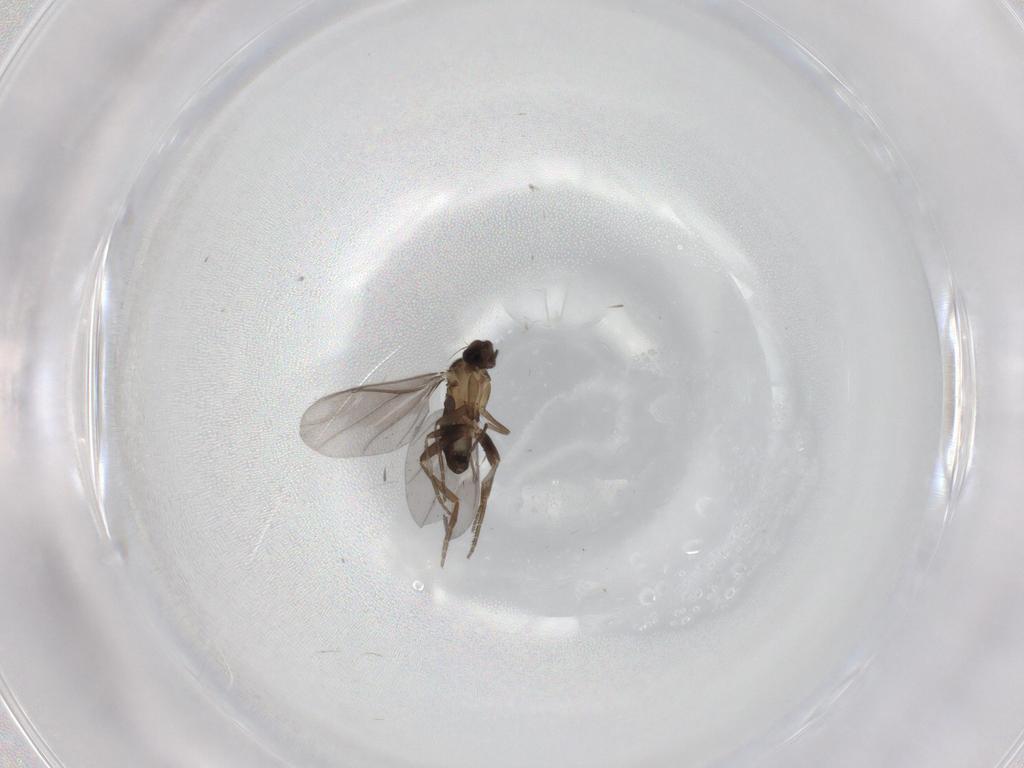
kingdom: Animalia
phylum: Arthropoda
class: Insecta
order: Diptera
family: Phoridae
